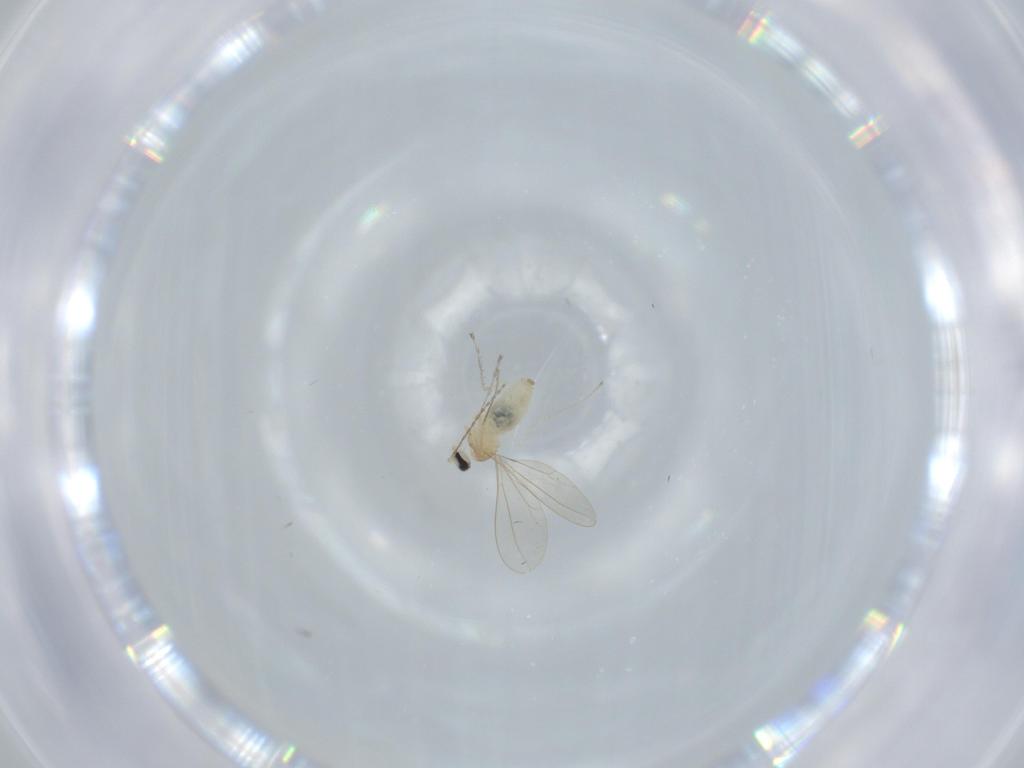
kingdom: Animalia
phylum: Arthropoda
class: Insecta
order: Diptera
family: Cecidomyiidae
